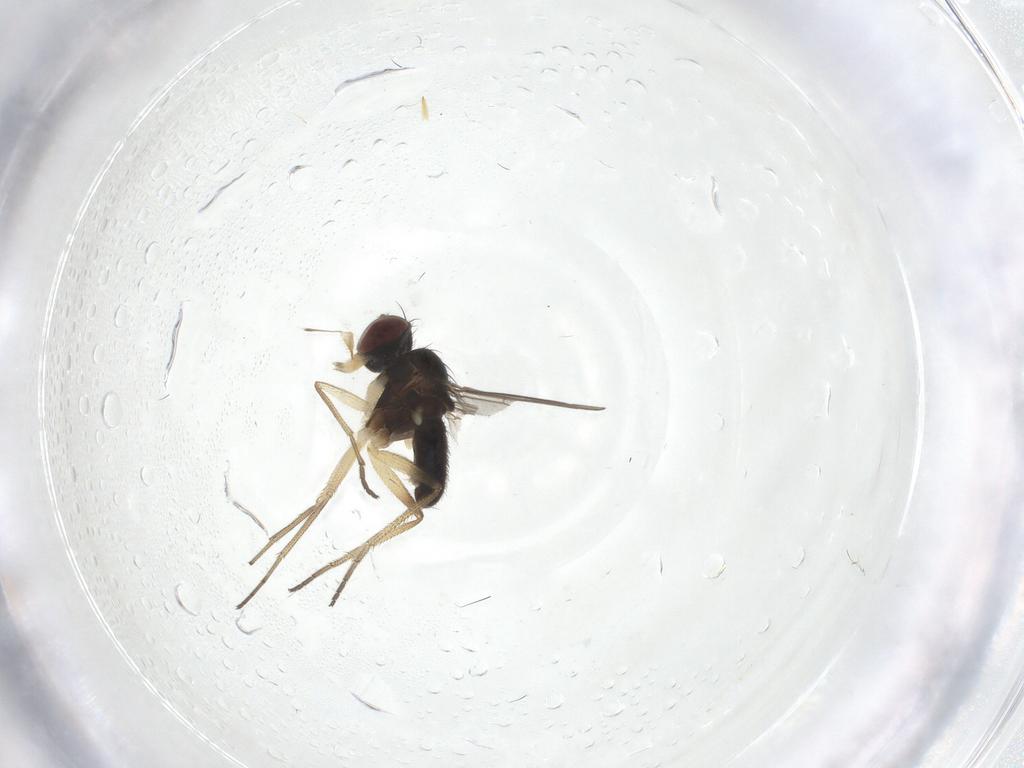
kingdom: Animalia
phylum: Arthropoda
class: Insecta
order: Diptera
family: Dolichopodidae
